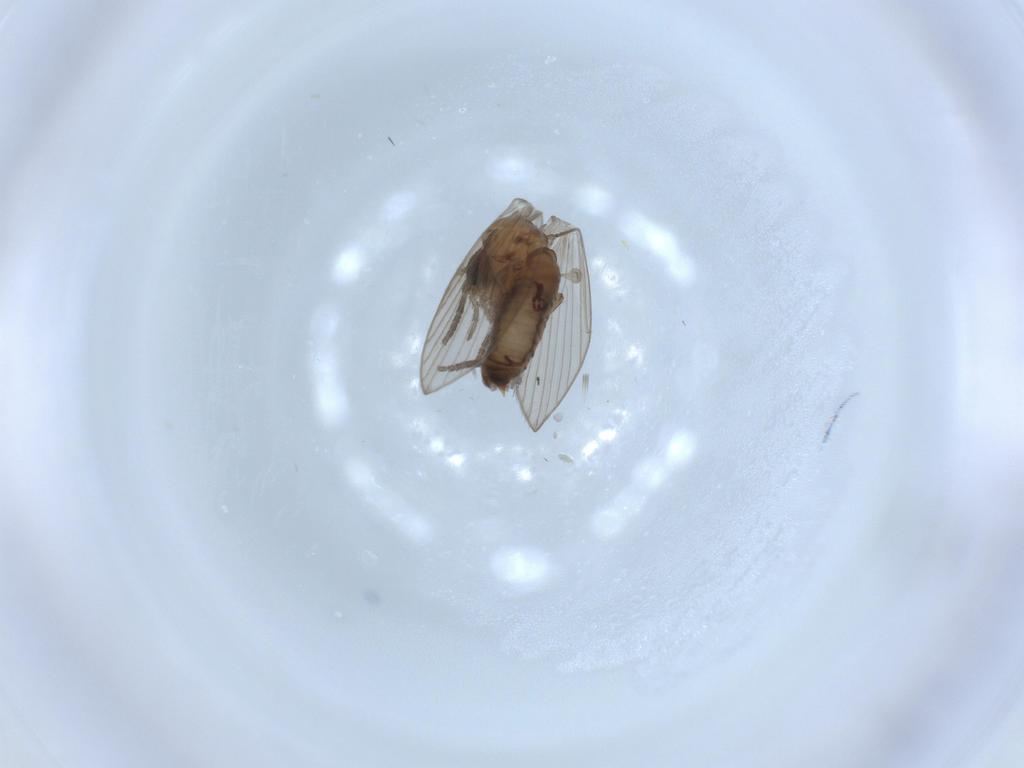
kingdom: Animalia
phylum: Arthropoda
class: Insecta
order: Diptera
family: Psychodidae
